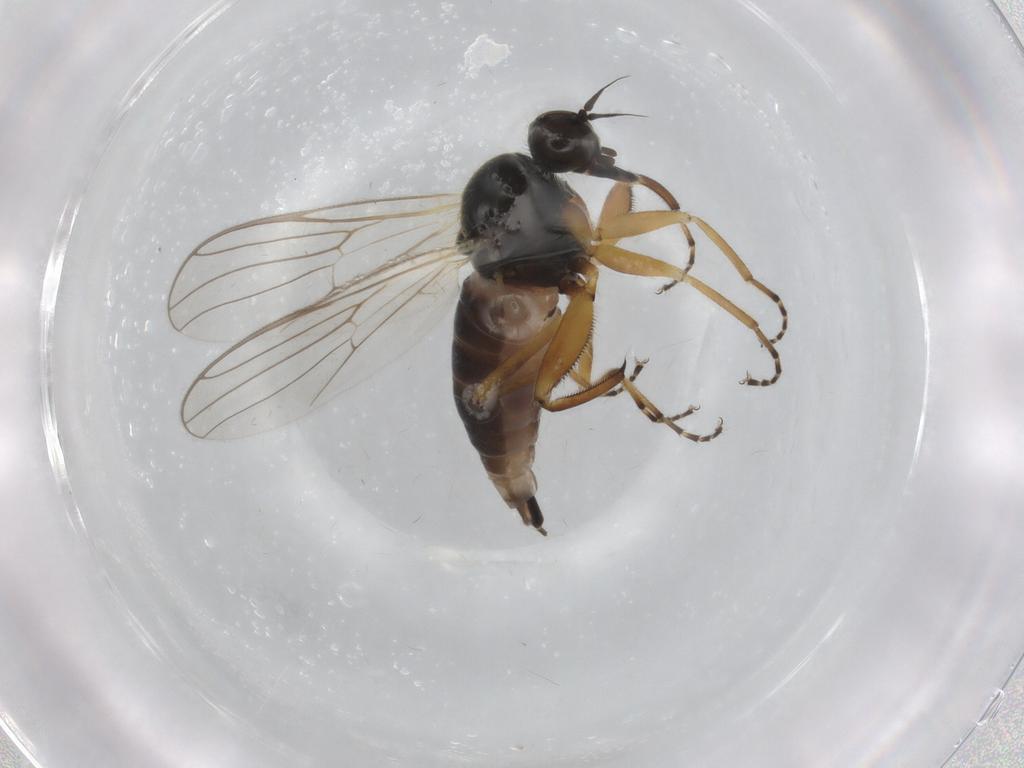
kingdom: Animalia
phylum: Arthropoda
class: Insecta
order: Diptera
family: Hybotidae
